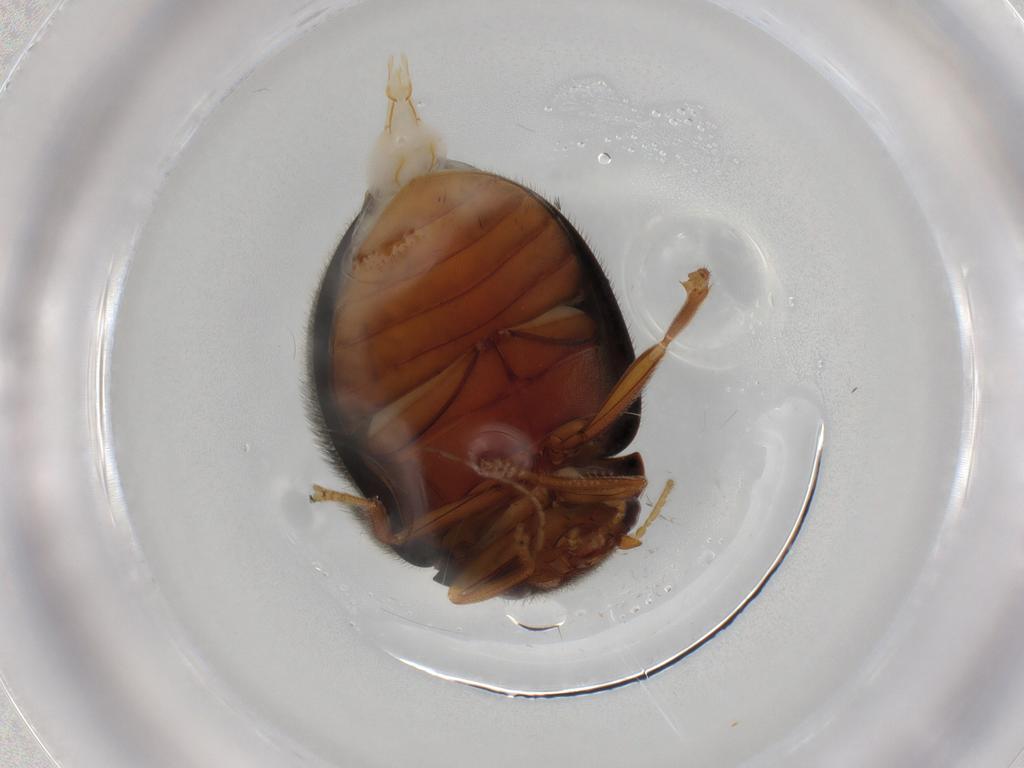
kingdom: Animalia
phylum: Arthropoda
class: Insecta
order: Coleoptera
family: Scirtidae
